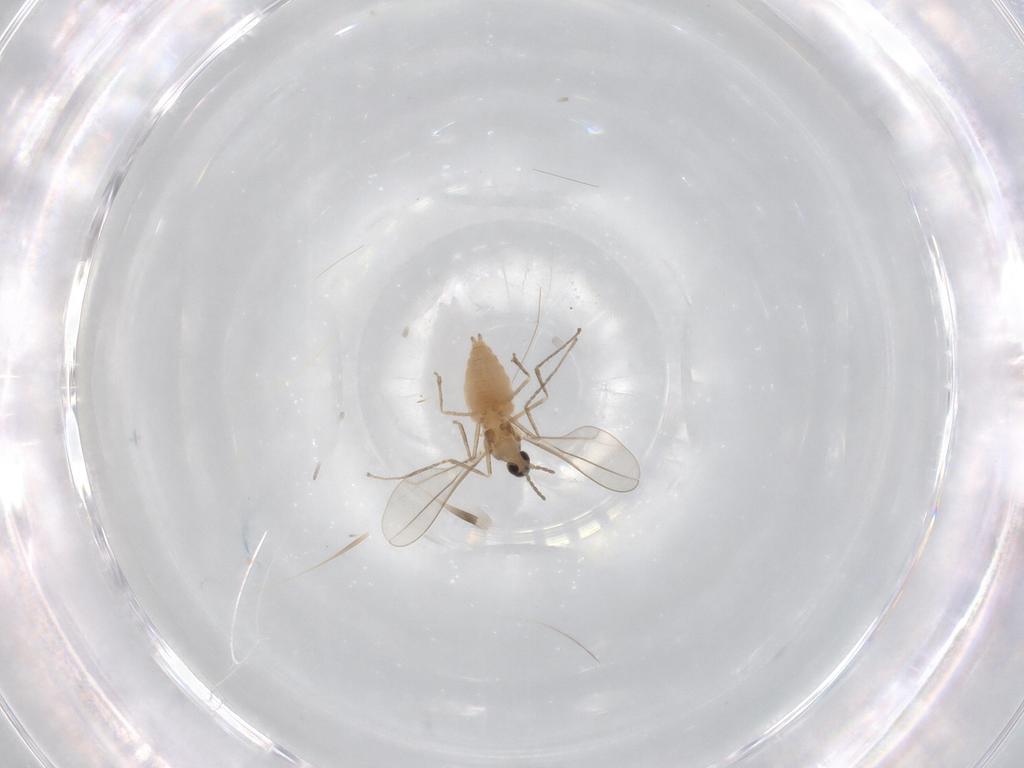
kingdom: Animalia
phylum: Arthropoda
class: Insecta
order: Diptera
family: Cecidomyiidae
